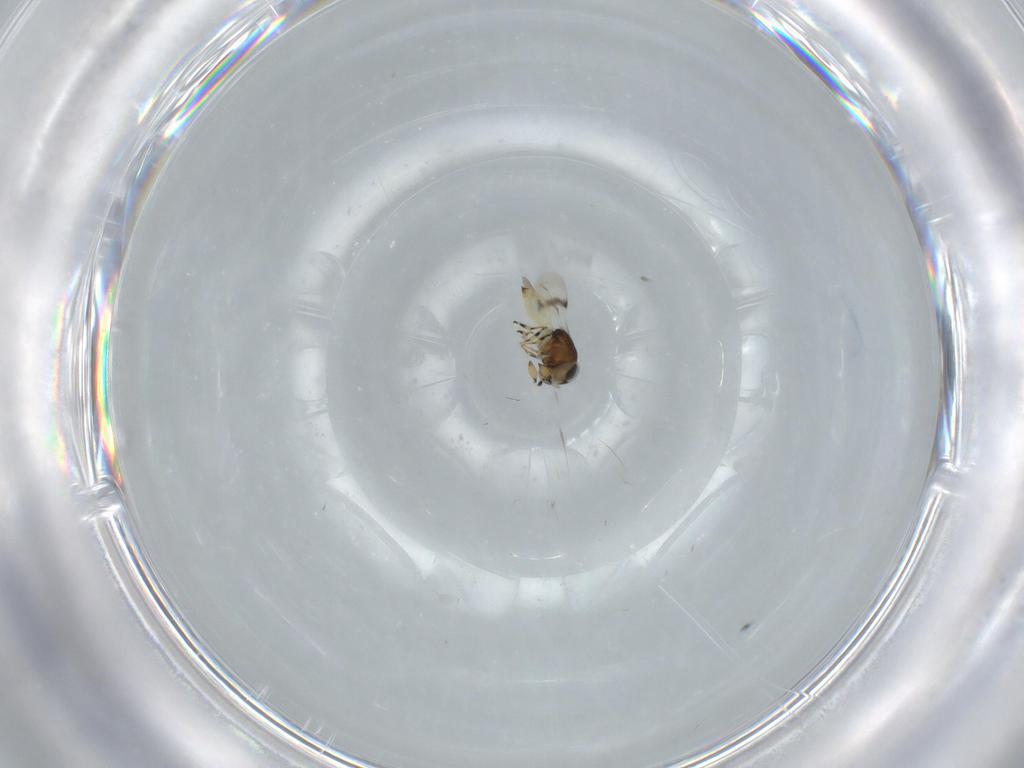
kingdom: Animalia
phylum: Arthropoda
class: Insecta
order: Hymenoptera
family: Scelionidae
